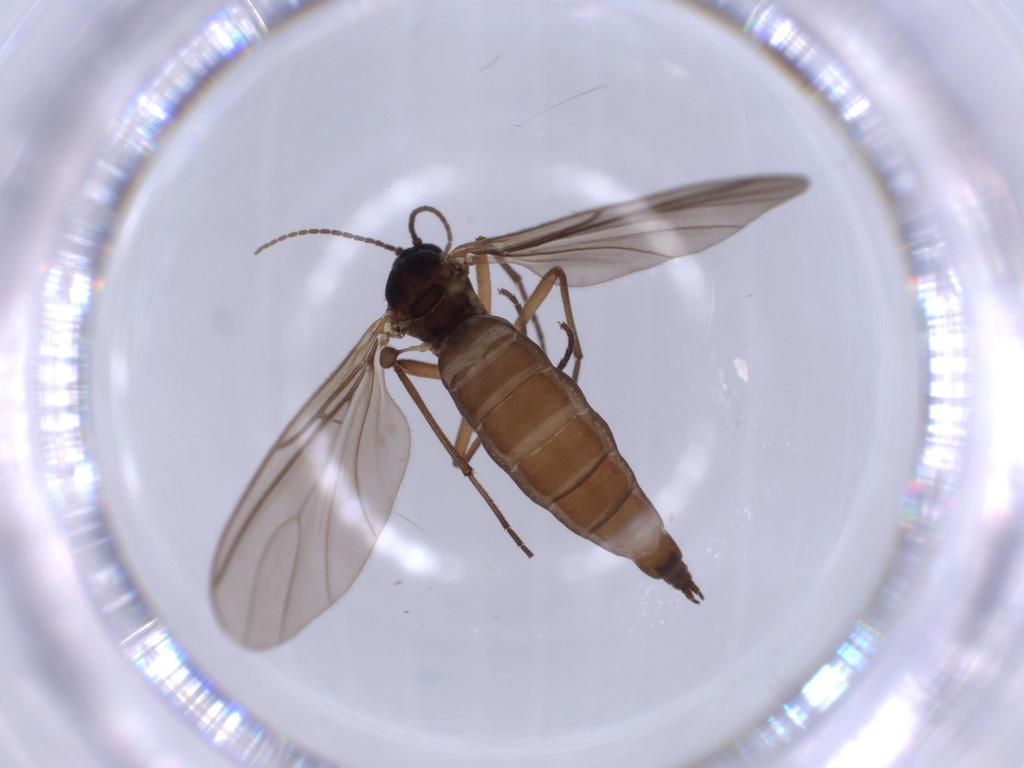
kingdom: Animalia
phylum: Arthropoda
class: Insecta
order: Diptera
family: Sciaridae
